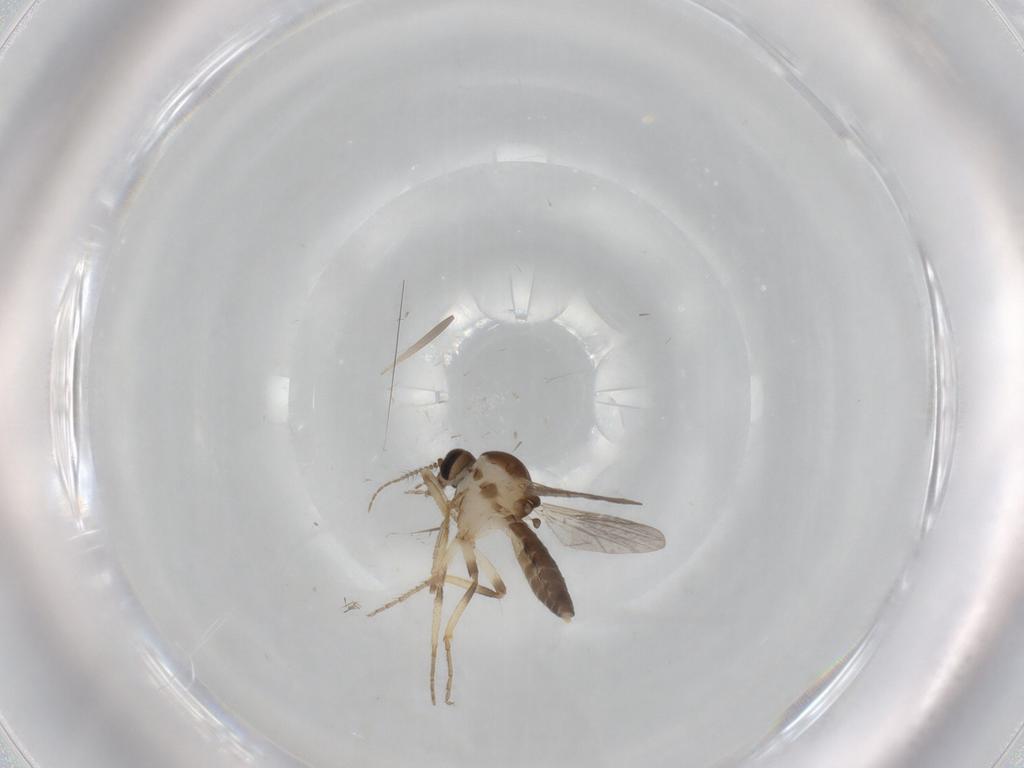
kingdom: Animalia
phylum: Arthropoda
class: Insecta
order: Diptera
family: Ceratopogonidae
